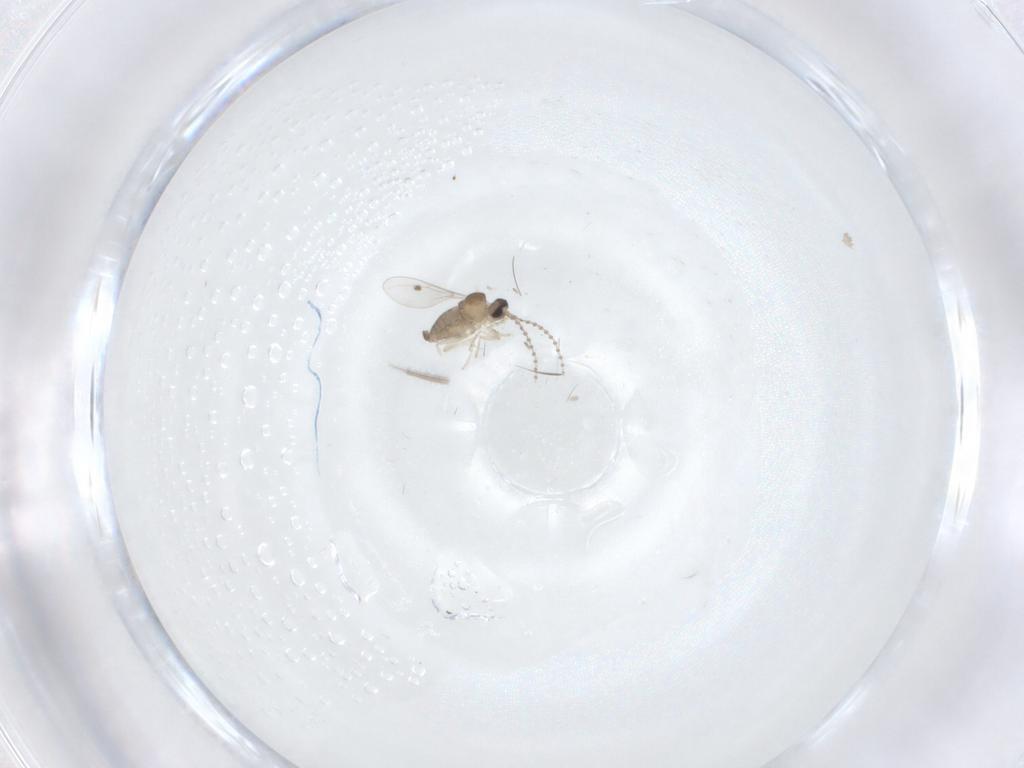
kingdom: Animalia
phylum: Arthropoda
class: Insecta
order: Diptera
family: Cecidomyiidae
